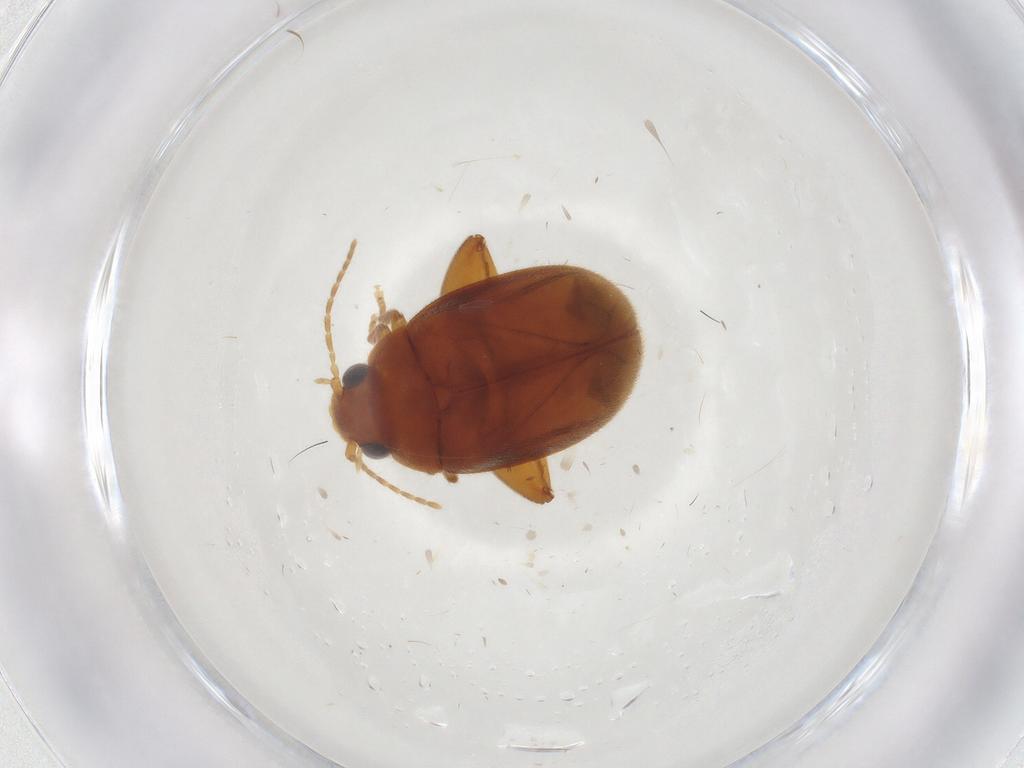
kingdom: Animalia
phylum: Arthropoda
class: Insecta
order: Coleoptera
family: Scirtidae
